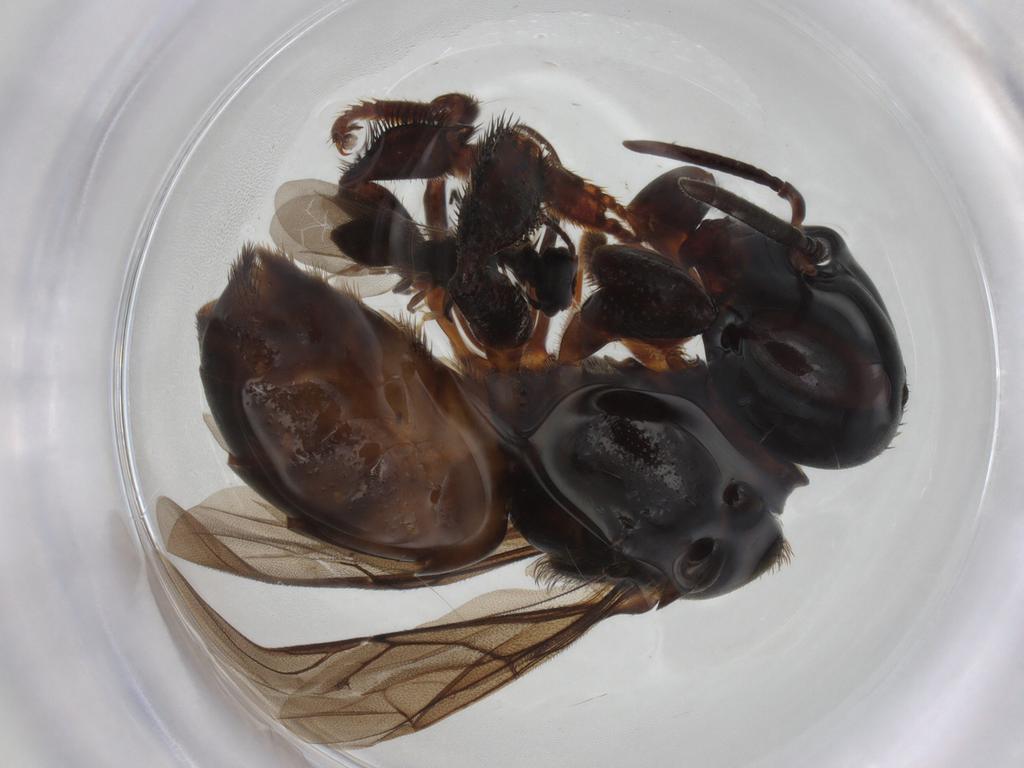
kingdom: Animalia
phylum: Arthropoda
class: Insecta
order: Hymenoptera
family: Apidae
